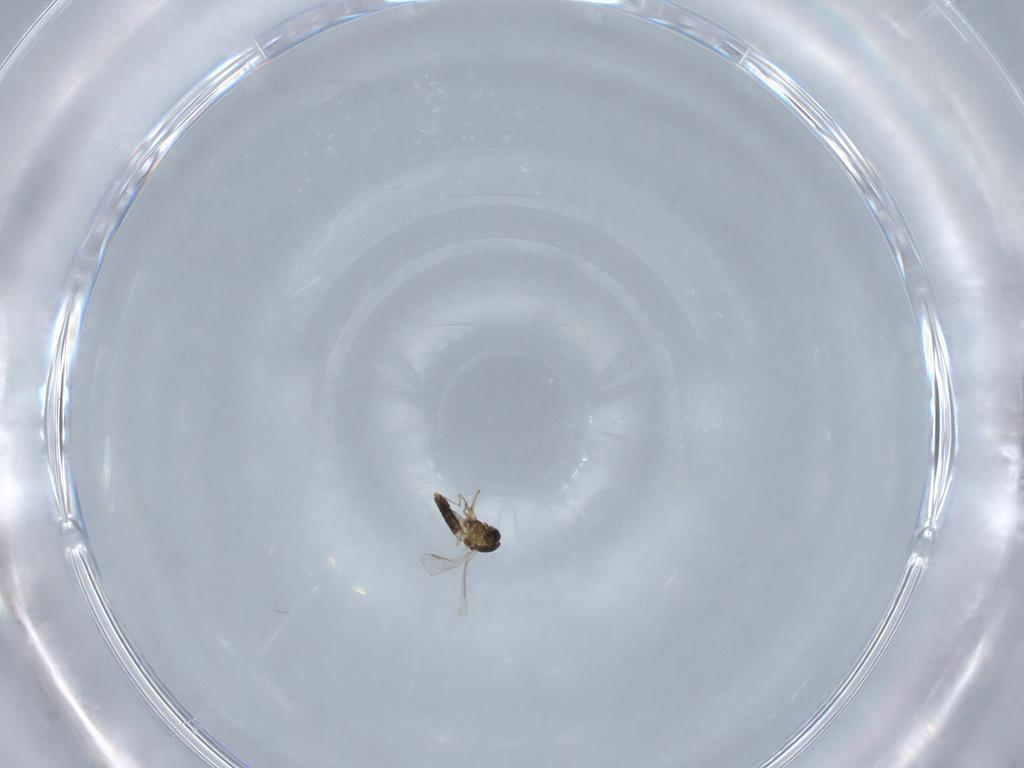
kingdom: Animalia
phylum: Arthropoda
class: Insecta
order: Diptera
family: Chironomidae
